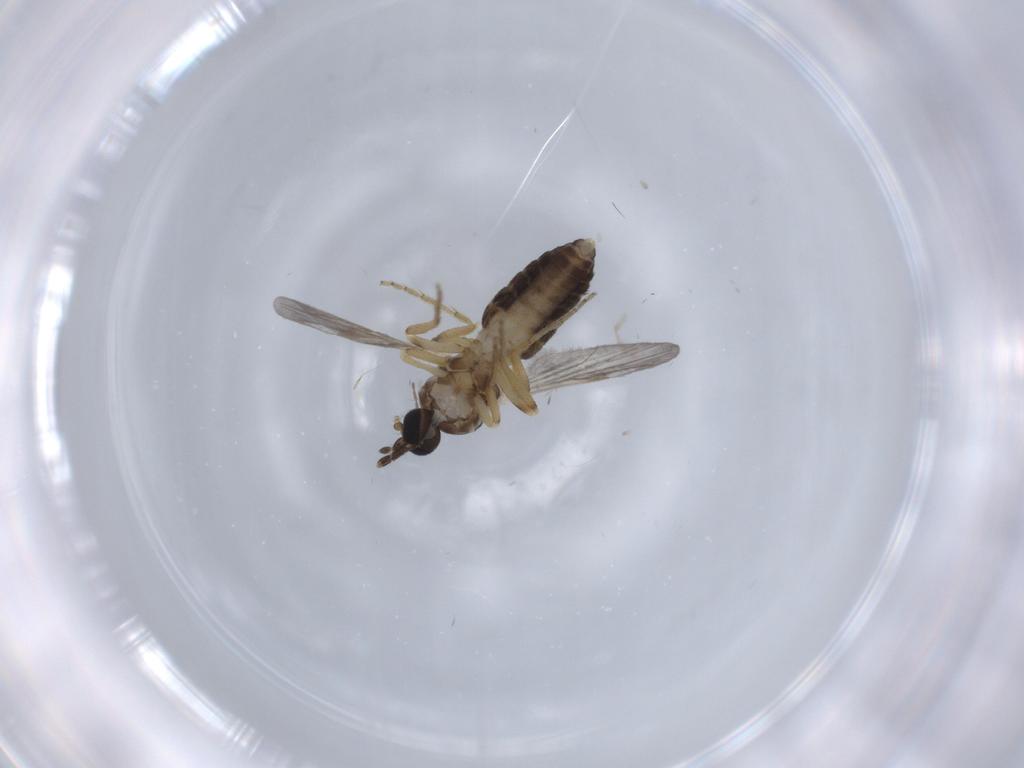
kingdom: Animalia
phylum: Arthropoda
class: Insecta
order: Diptera
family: Ceratopogonidae
